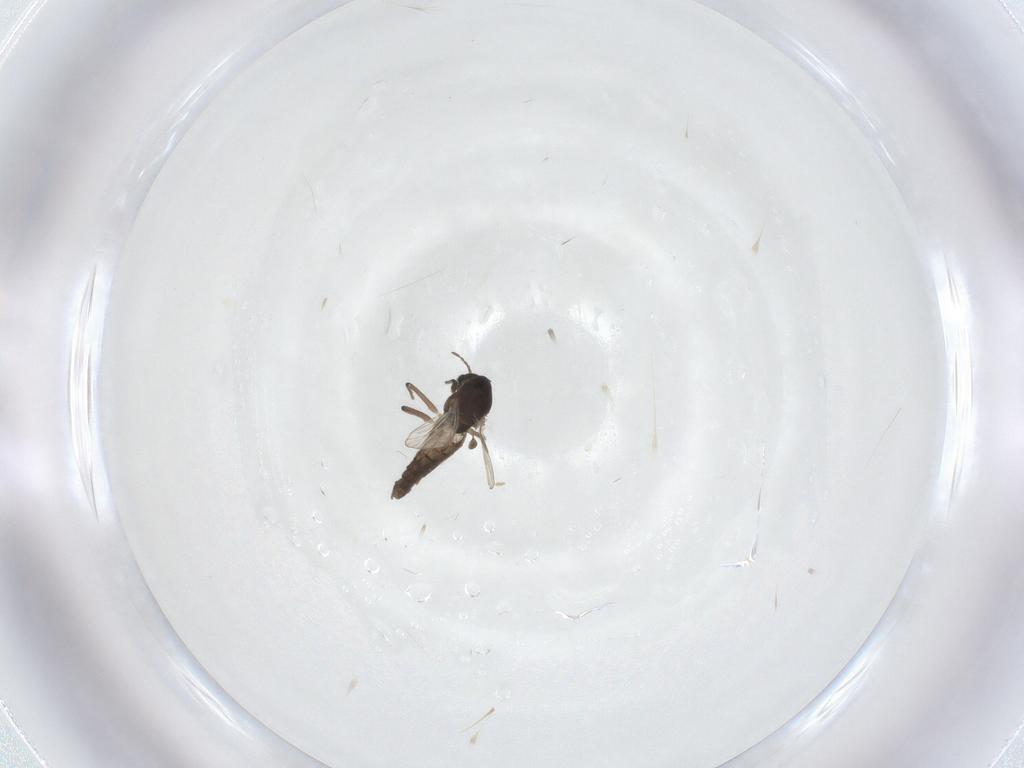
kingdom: Animalia
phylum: Arthropoda
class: Insecta
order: Diptera
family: Chironomidae
